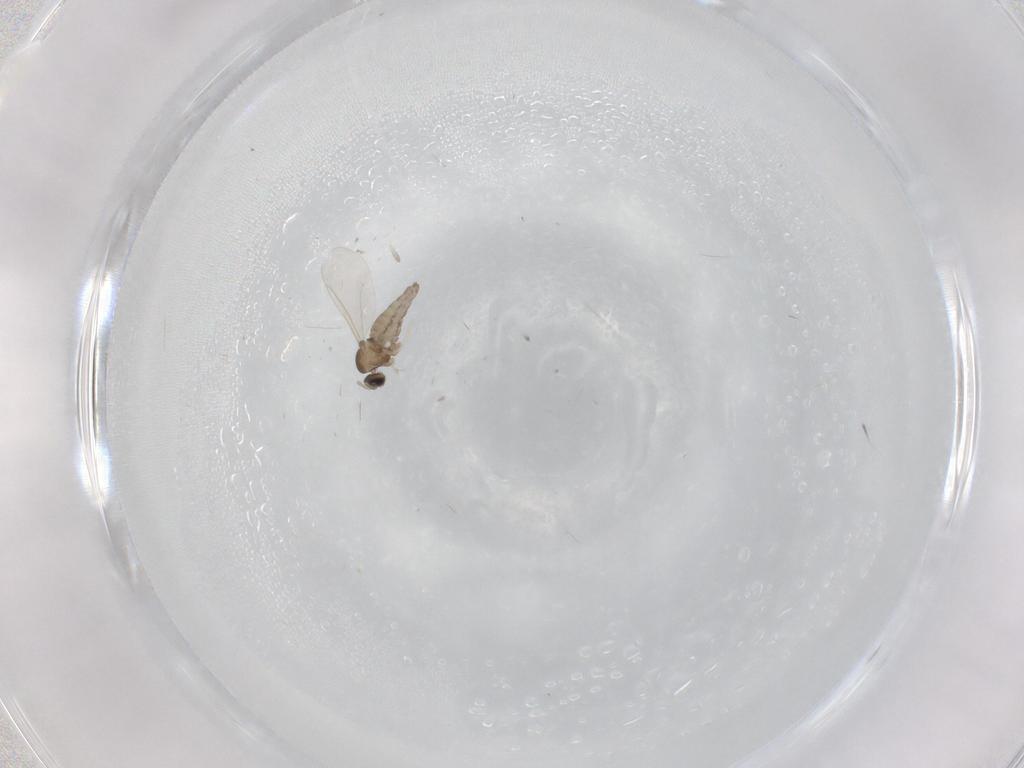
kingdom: Animalia
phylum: Arthropoda
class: Insecta
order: Diptera
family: Cecidomyiidae
